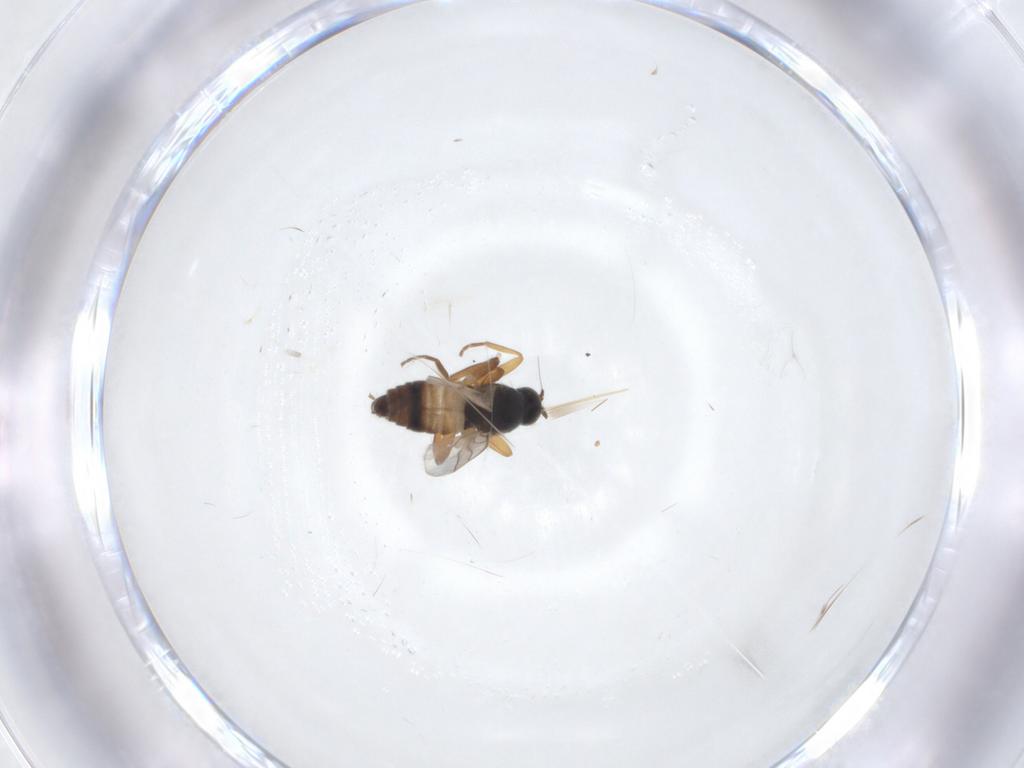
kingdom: Animalia
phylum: Arthropoda
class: Insecta
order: Diptera
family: Hybotidae
